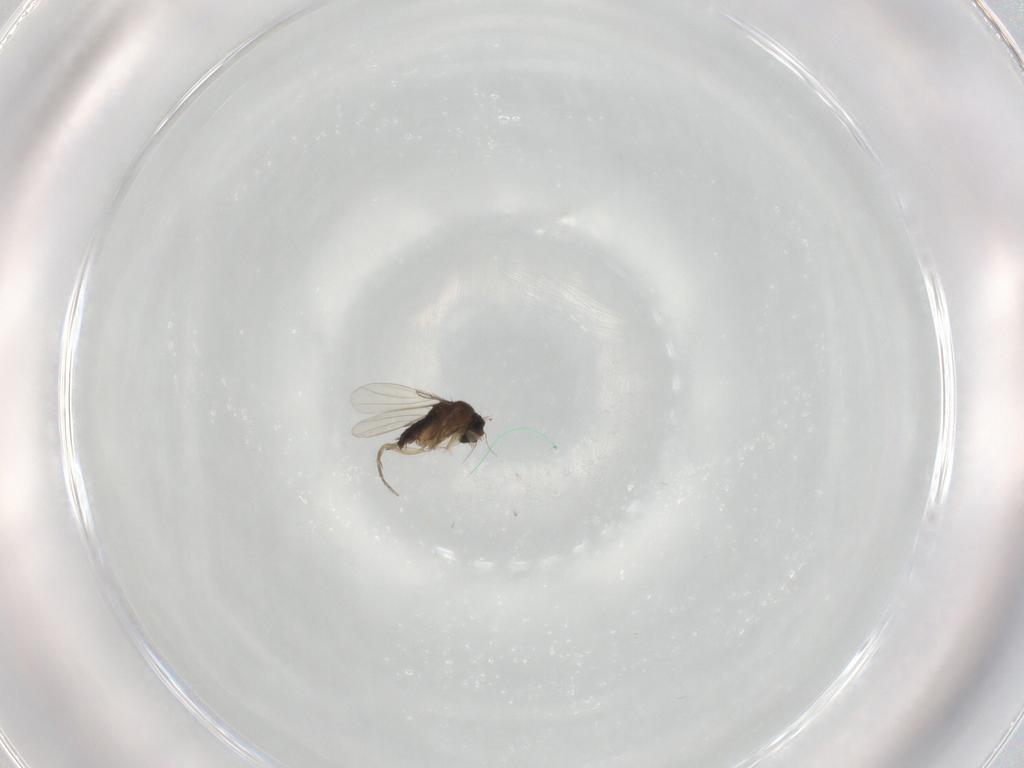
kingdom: Animalia
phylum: Arthropoda
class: Insecta
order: Diptera
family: Phoridae
